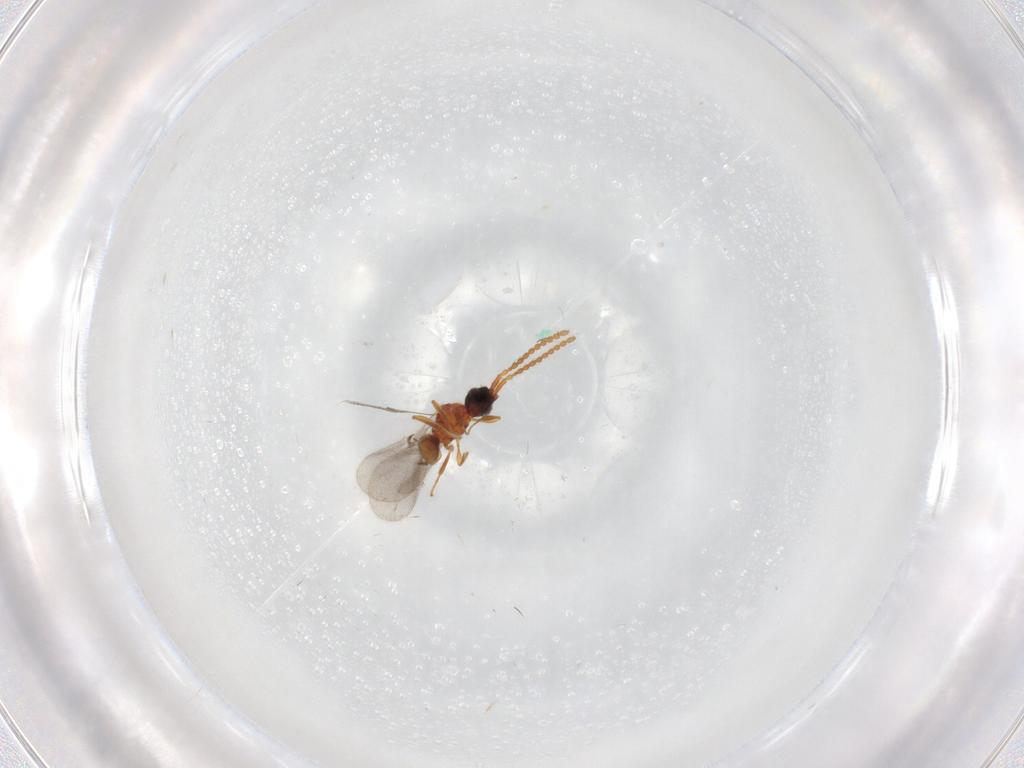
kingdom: Animalia
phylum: Arthropoda
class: Insecta
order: Hymenoptera
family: Diapriidae
